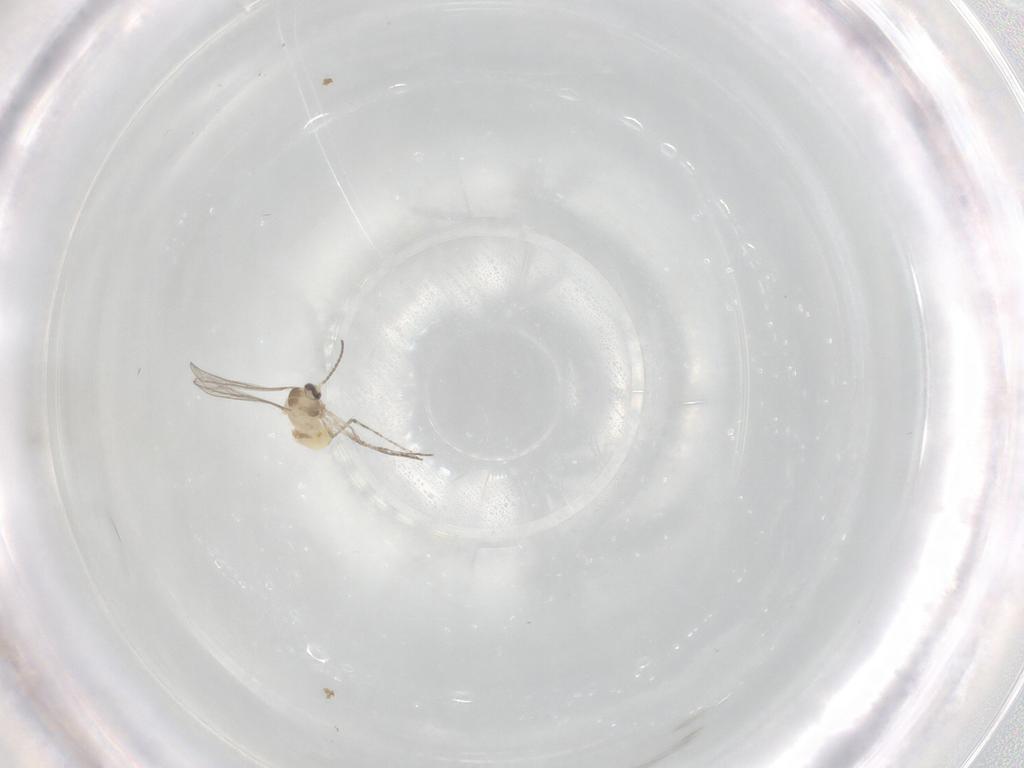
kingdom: Animalia
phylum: Arthropoda
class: Insecta
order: Diptera
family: Cecidomyiidae
